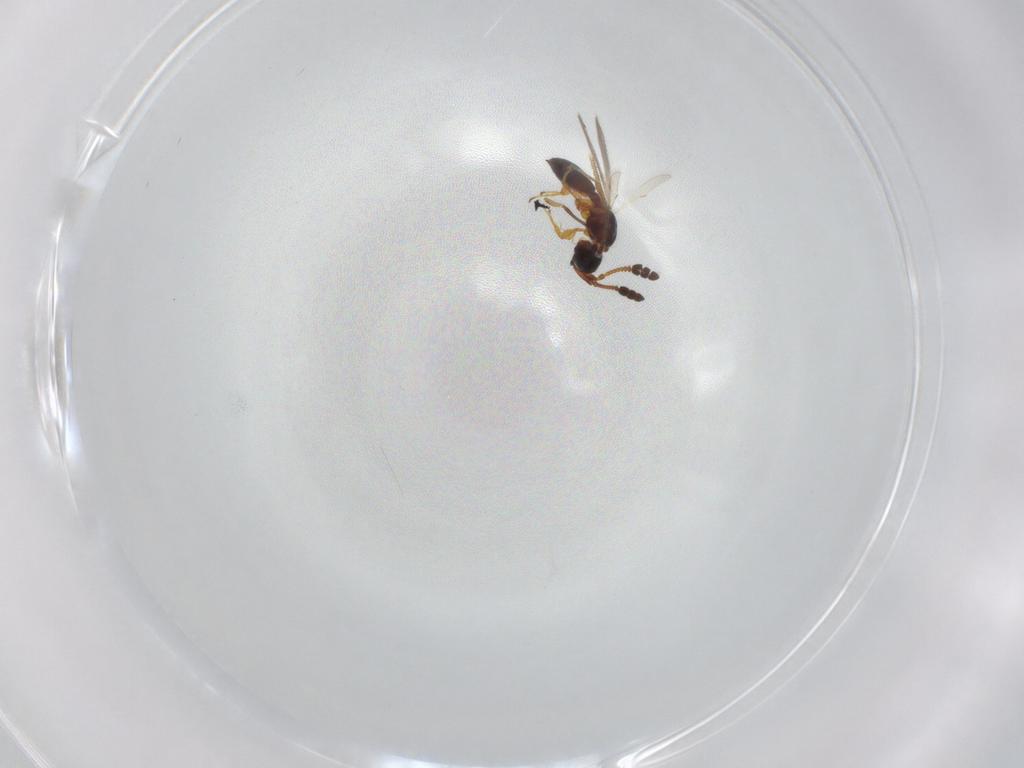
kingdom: Animalia
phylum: Arthropoda
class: Insecta
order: Hymenoptera
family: Diapriidae
